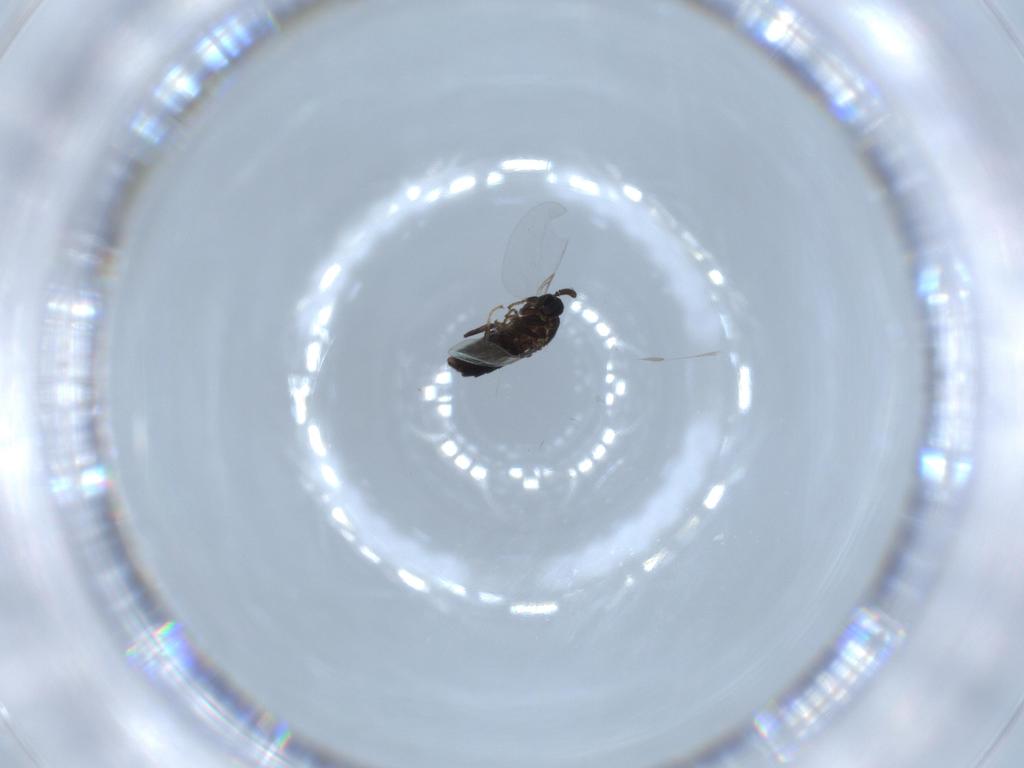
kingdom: Animalia
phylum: Arthropoda
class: Insecta
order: Diptera
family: Scatopsidae
